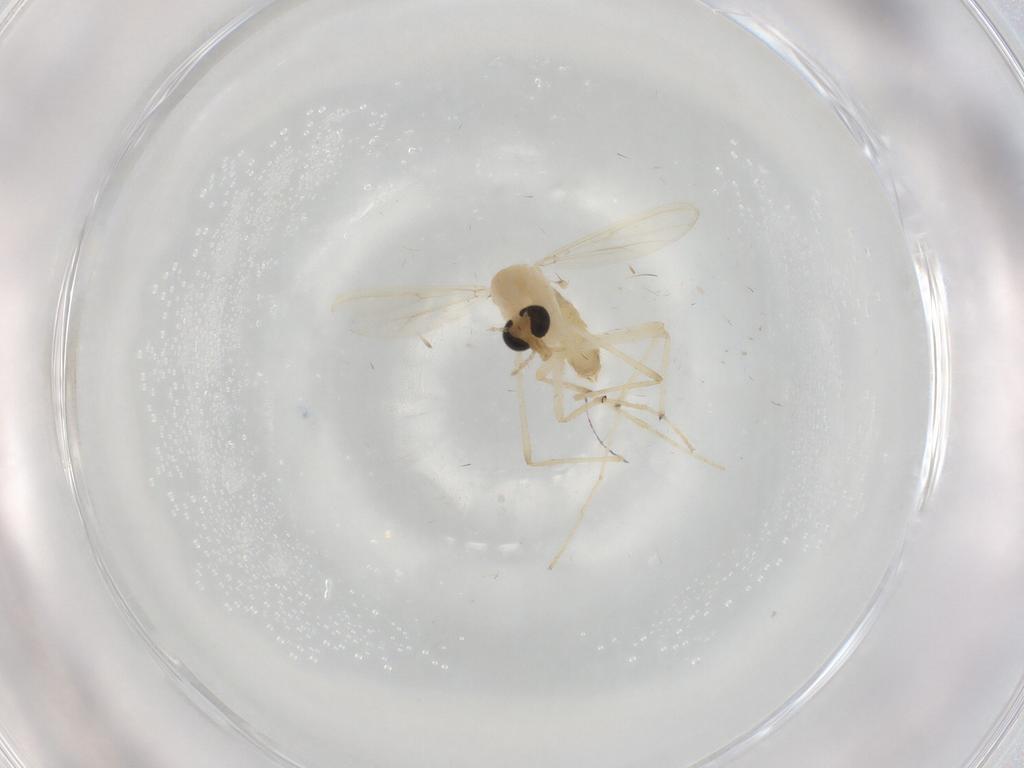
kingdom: Animalia
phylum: Arthropoda
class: Insecta
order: Diptera
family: Chironomidae
